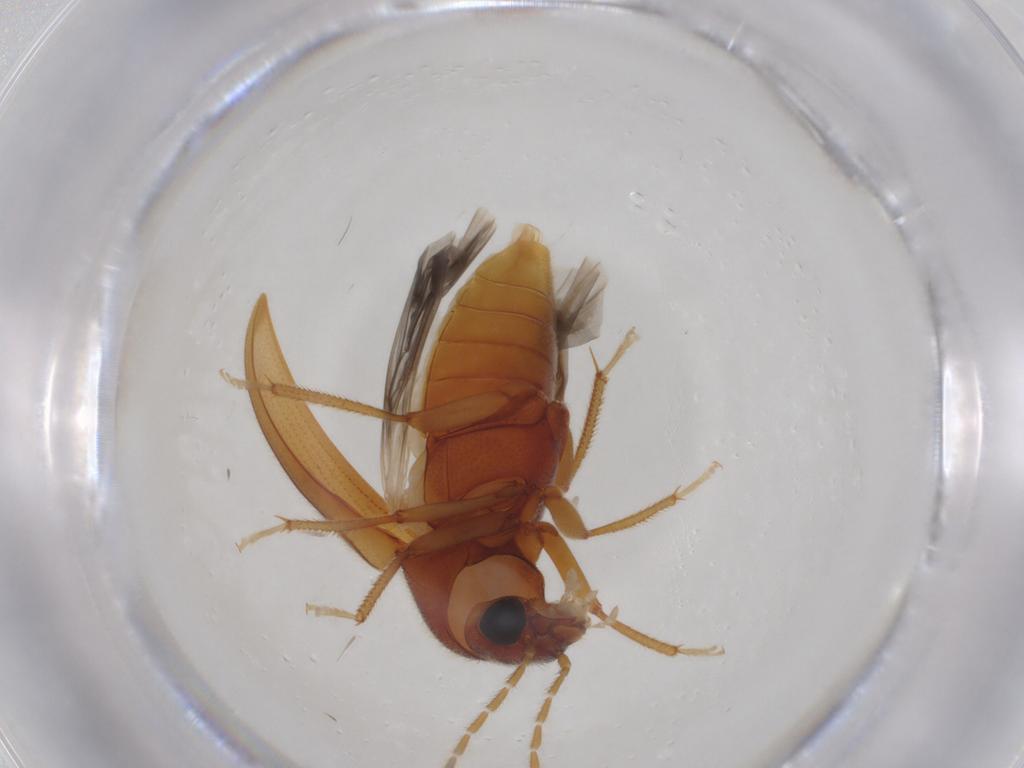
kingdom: Animalia
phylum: Arthropoda
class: Insecta
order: Coleoptera
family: Ptilodactylidae
